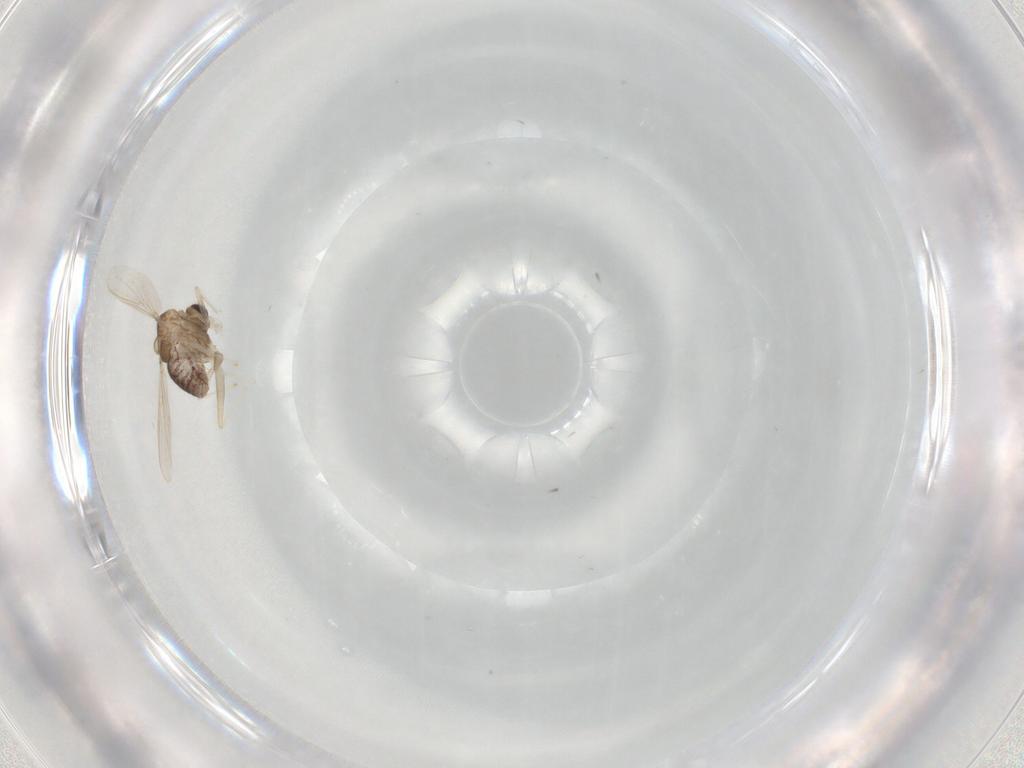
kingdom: Animalia
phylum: Arthropoda
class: Insecta
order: Diptera
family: Chironomidae
